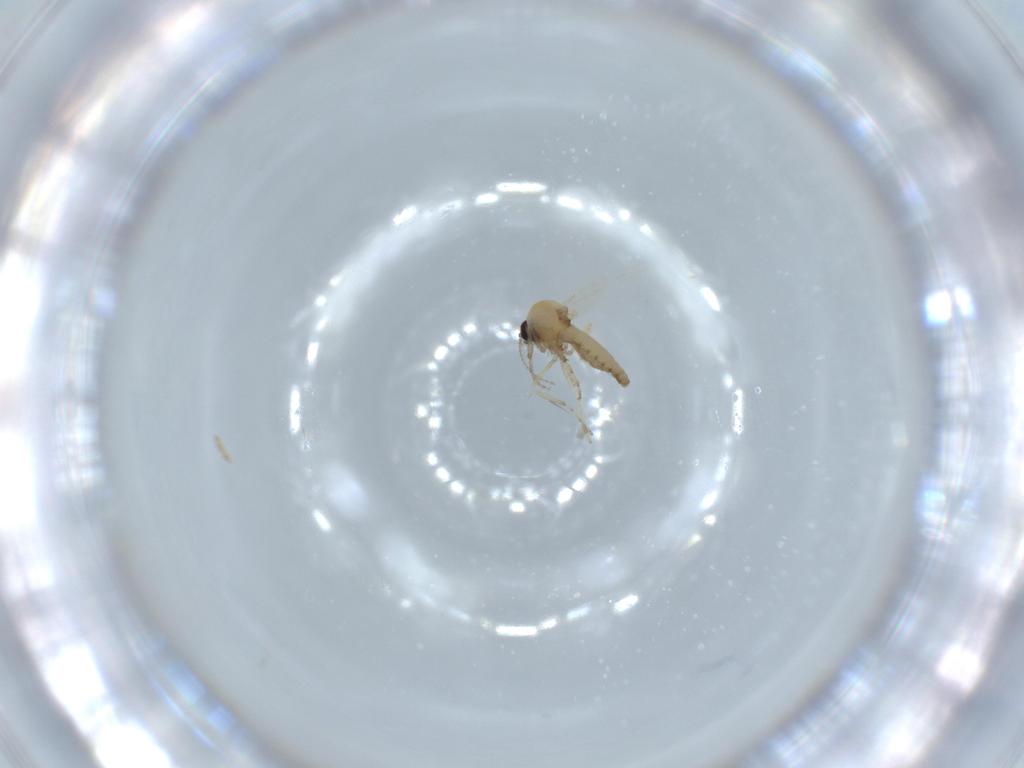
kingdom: Animalia
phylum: Arthropoda
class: Insecta
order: Diptera
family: Ceratopogonidae
